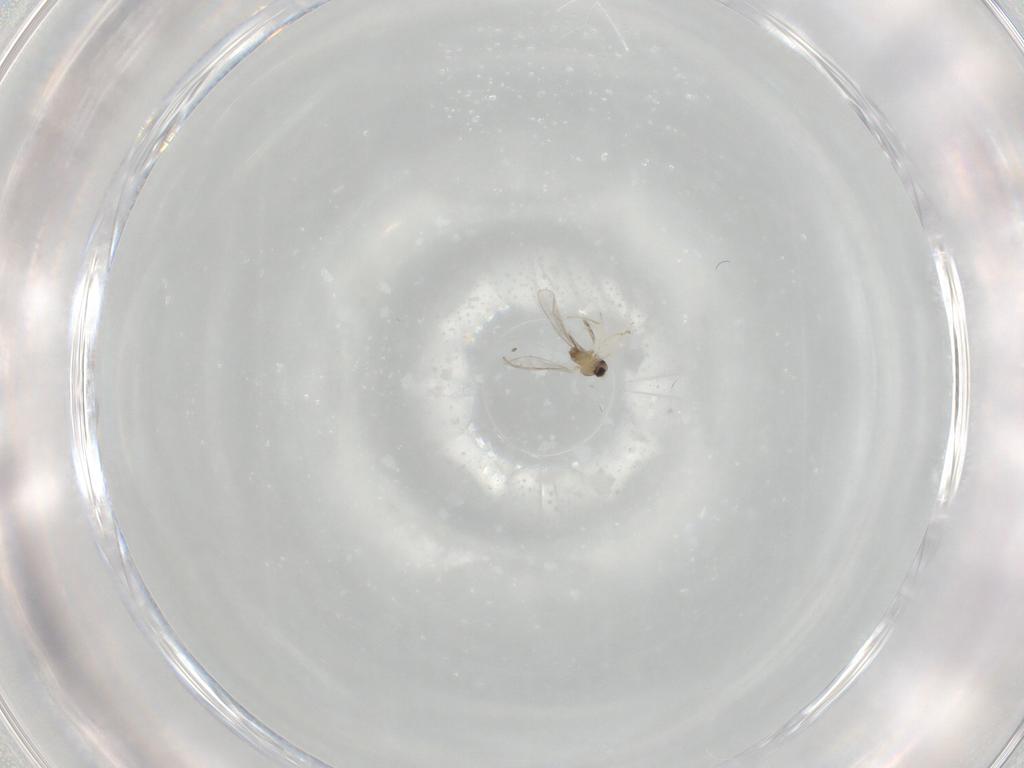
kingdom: Animalia
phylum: Arthropoda
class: Insecta
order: Diptera
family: Cecidomyiidae
